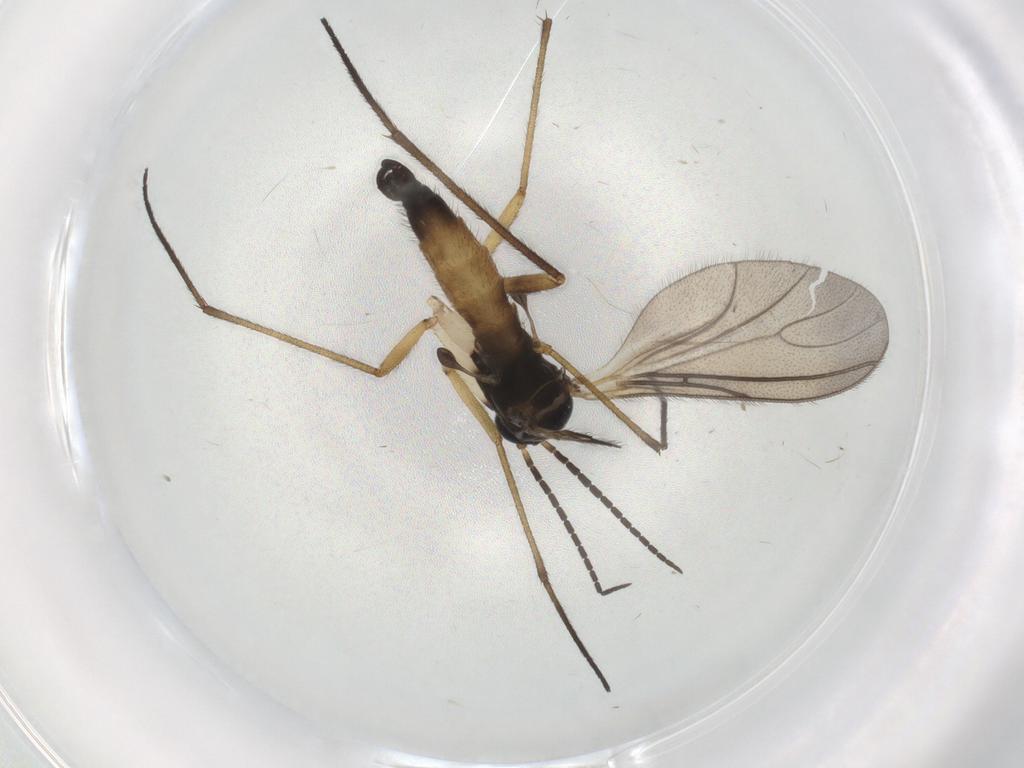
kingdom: Animalia
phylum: Arthropoda
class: Insecta
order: Diptera
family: Sciaridae
